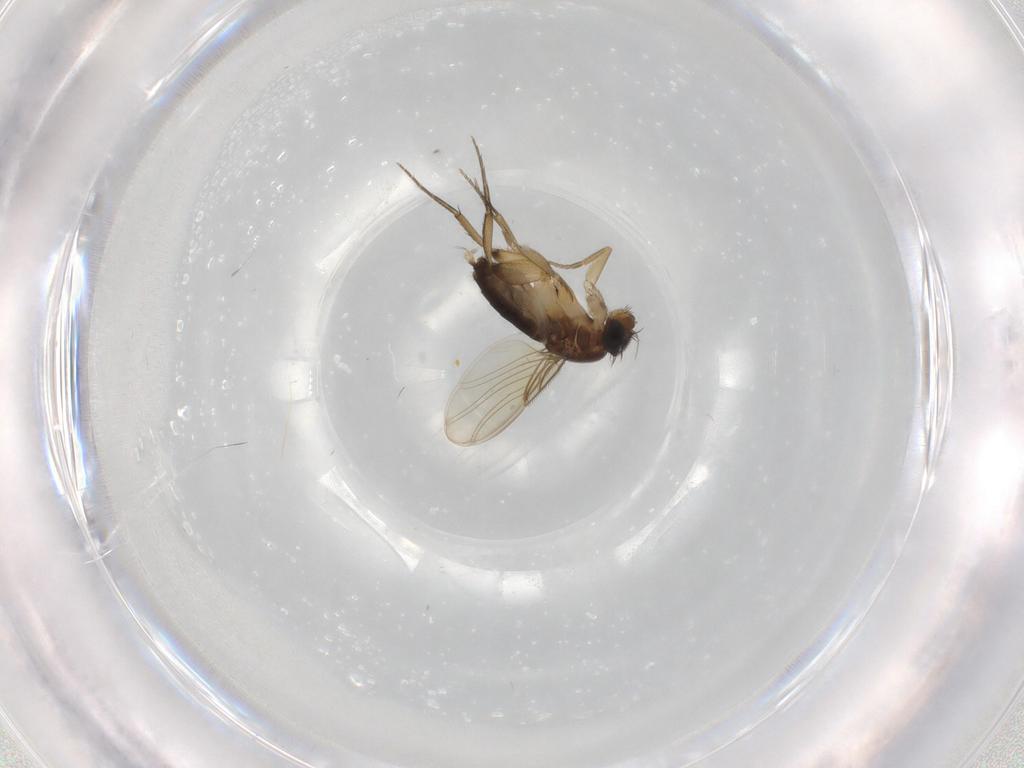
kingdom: Animalia
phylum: Arthropoda
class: Insecta
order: Diptera
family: Phoridae
